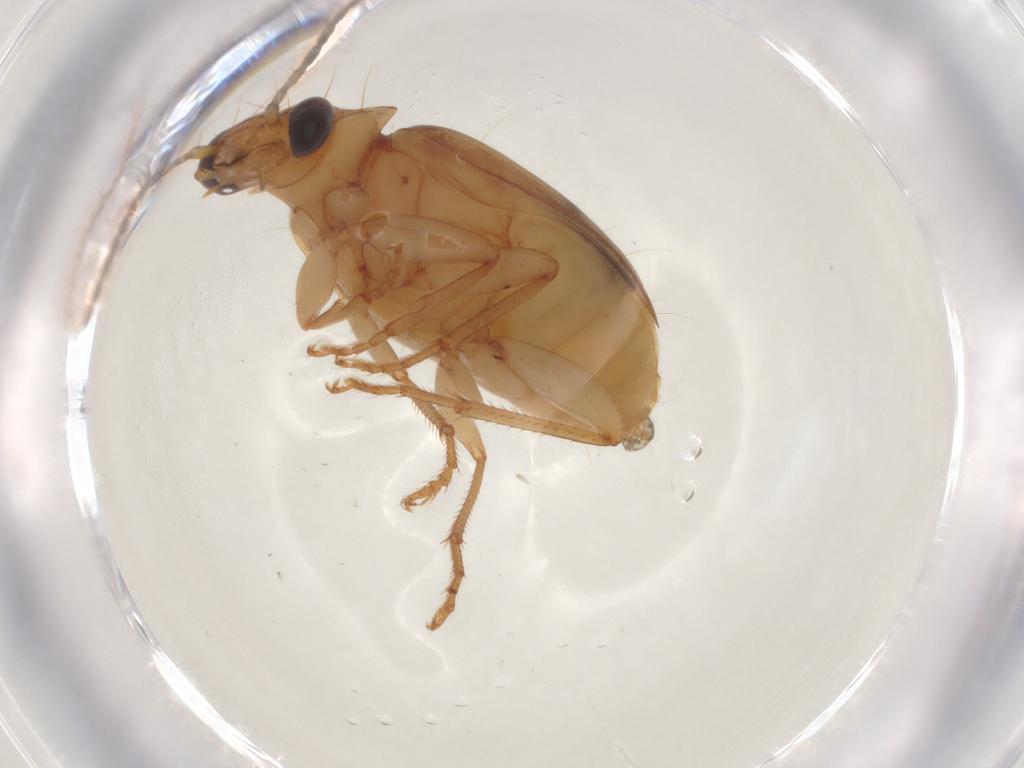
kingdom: Animalia
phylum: Arthropoda
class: Insecta
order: Coleoptera
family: Carabidae
